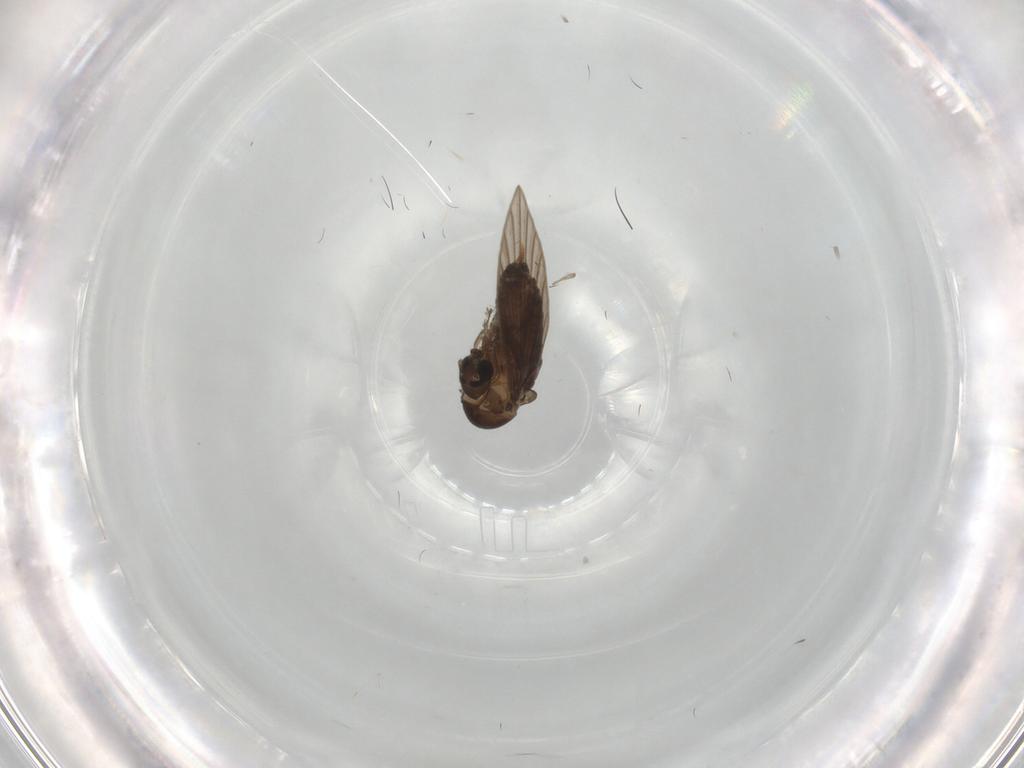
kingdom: Animalia
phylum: Arthropoda
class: Insecta
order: Diptera
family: Psychodidae
